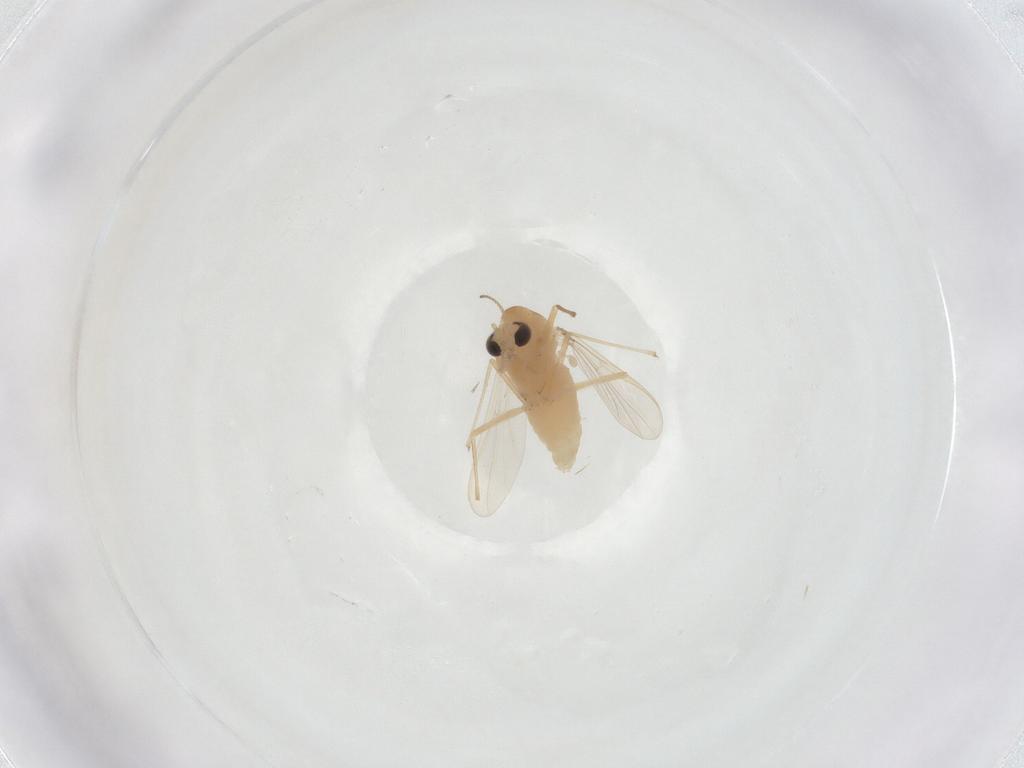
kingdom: Animalia
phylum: Arthropoda
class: Insecta
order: Diptera
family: Chironomidae
